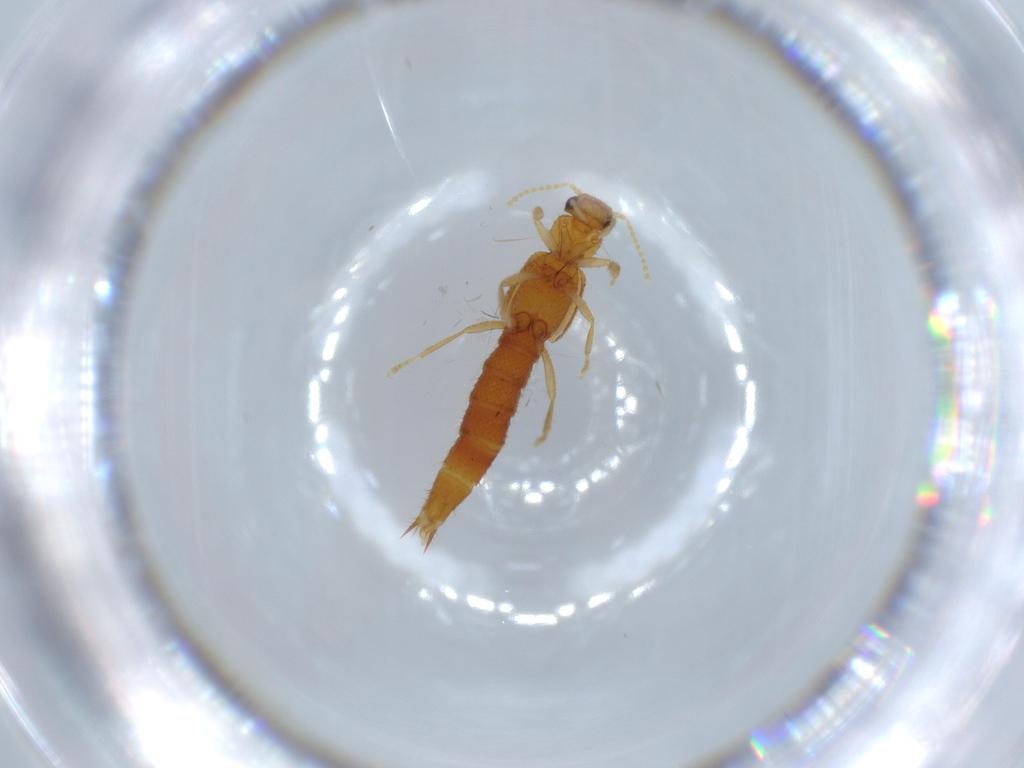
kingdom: Animalia
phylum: Arthropoda
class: Insecta
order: Coleoptera
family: Staphylinidae
